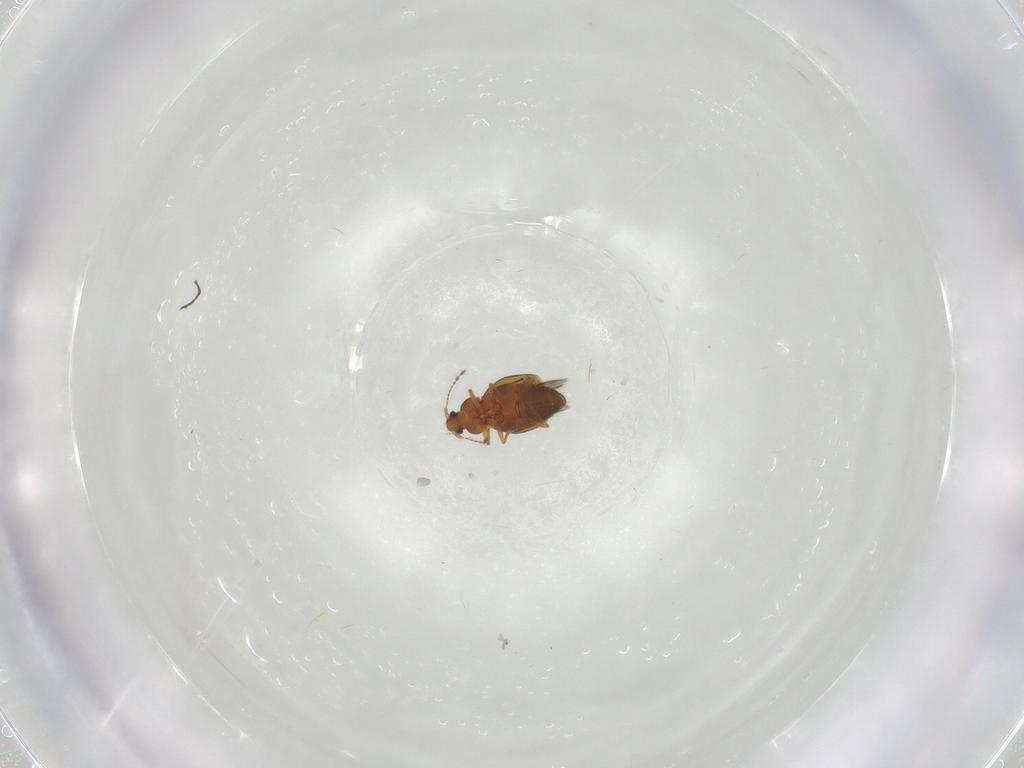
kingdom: Animalia
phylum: Arthropoda
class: Insecta
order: Coleoptera
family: Ptiliidae
